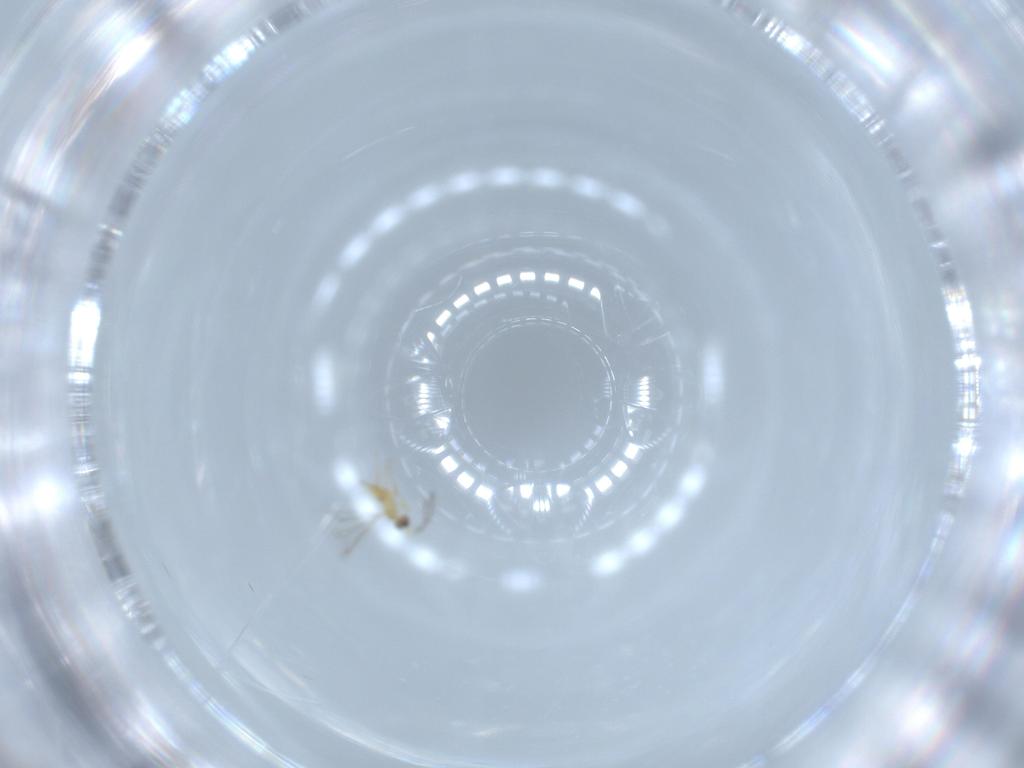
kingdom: Animalia
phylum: Arthropoda
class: Insecta
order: Hymenoptera
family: Mymaridae
